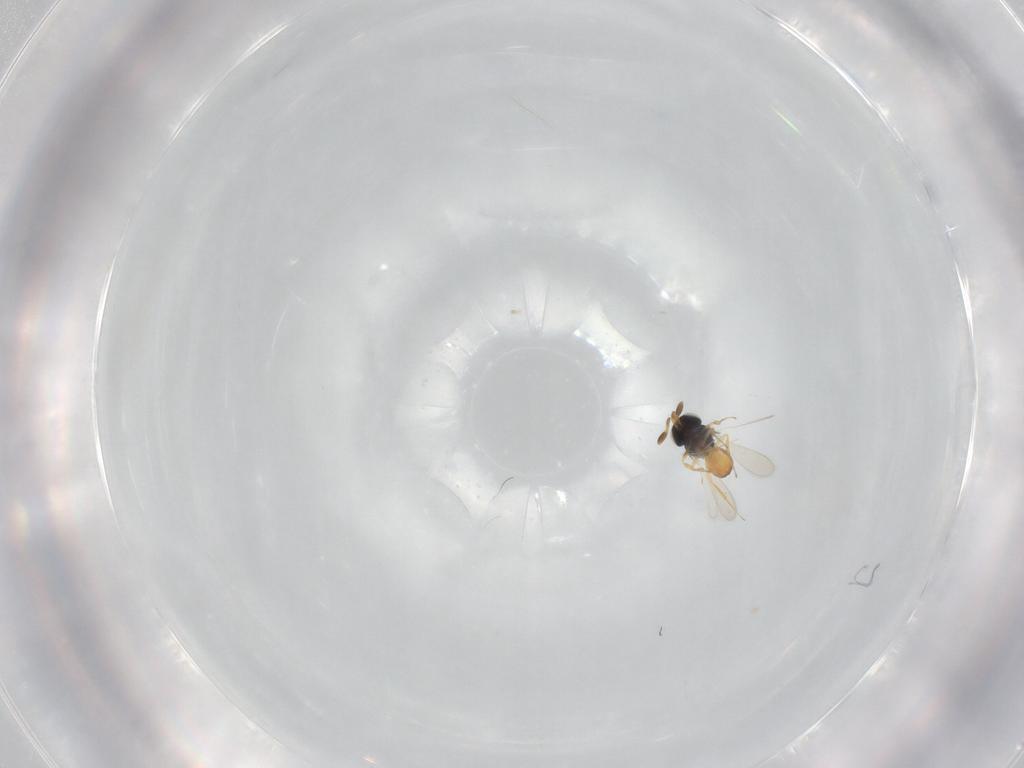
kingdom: Animalia
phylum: Arthropoda
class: Insecta
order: Hymenoptera
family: Scelionidae
